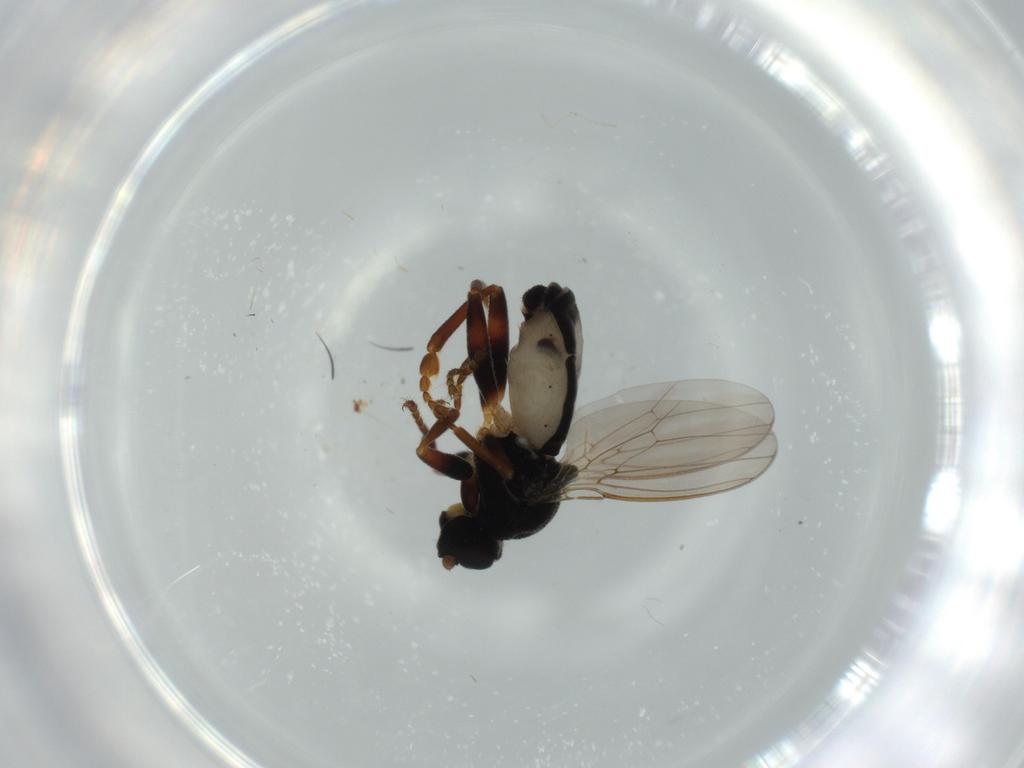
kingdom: Animalia
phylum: Arthropoda
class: Insecta
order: Diptera
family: Sphaeroceridae
